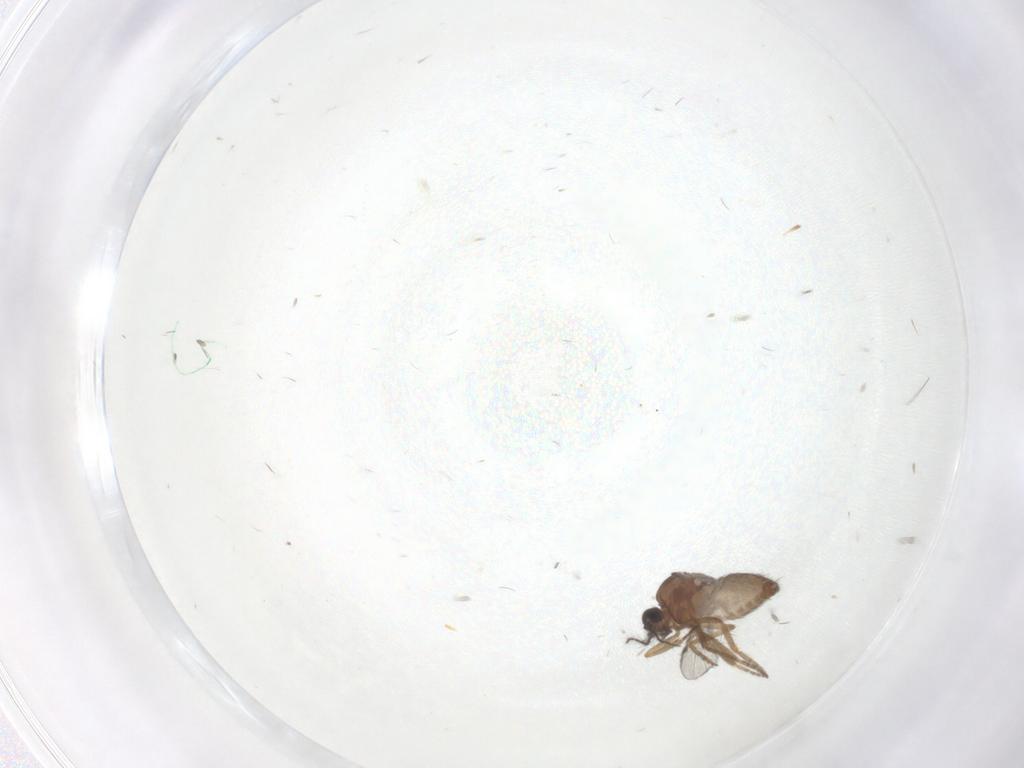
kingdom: Animalia
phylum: Arthropoda
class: Insecta
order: Diptera
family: Ceratopogonidae
